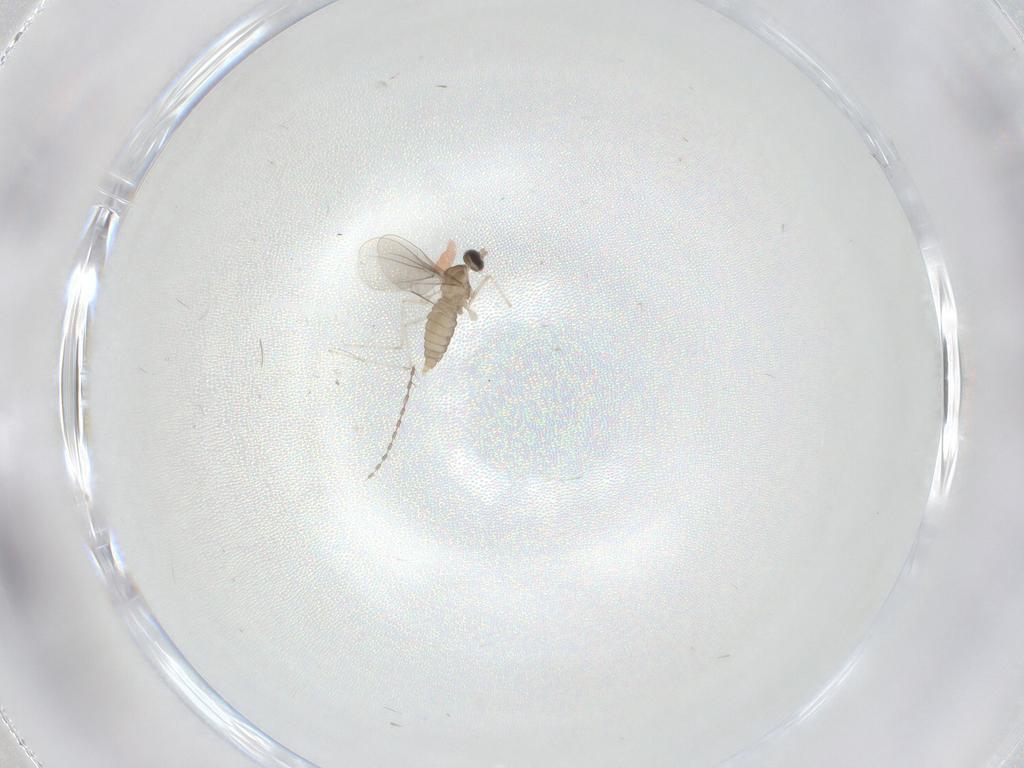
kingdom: Animalia
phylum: Arthropoda
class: Insecta
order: Diptera
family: Cecidomyiidae
